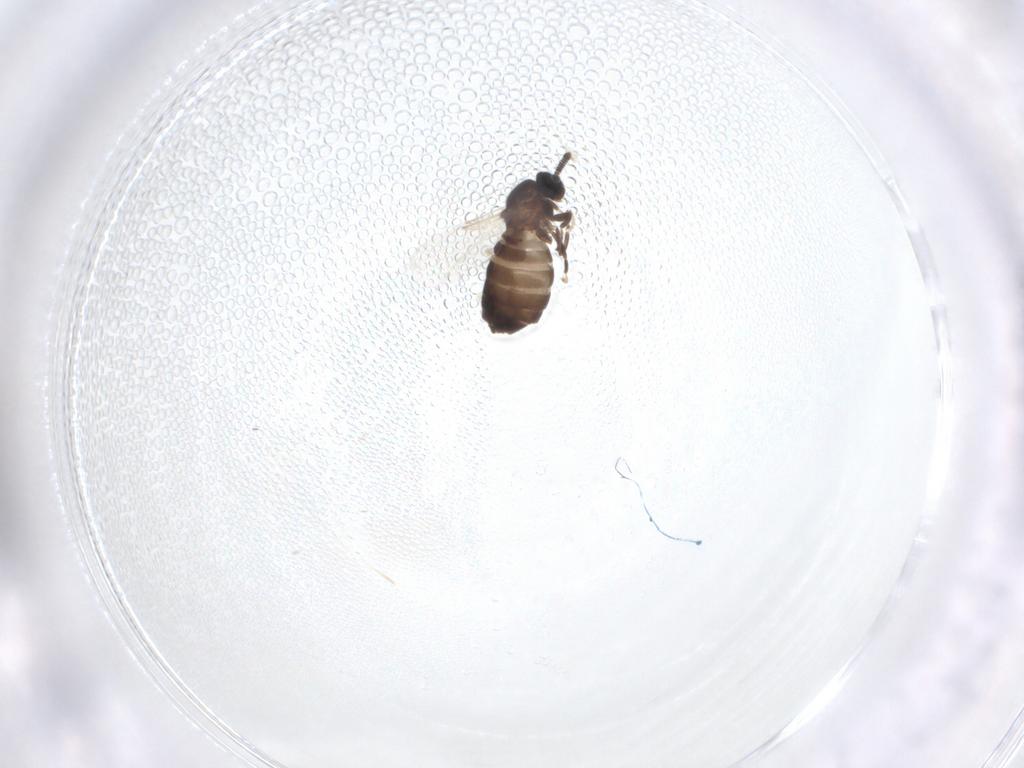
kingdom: Animalia
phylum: Arthropoda
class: Insecta
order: Diptera
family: Scatopsidae
